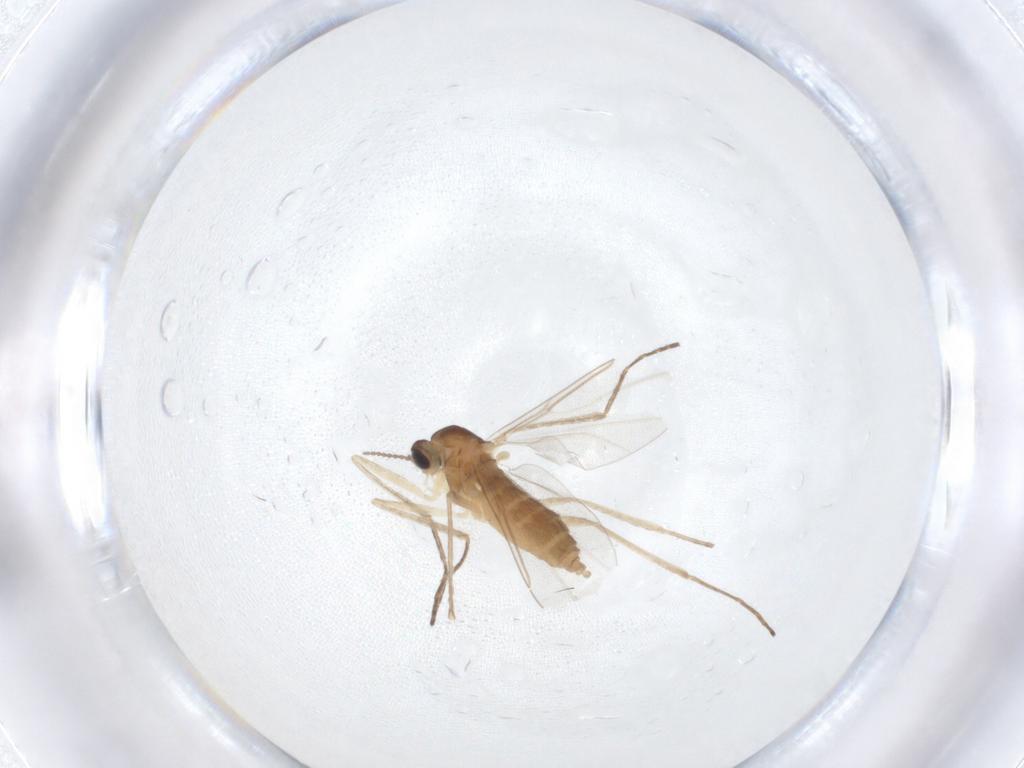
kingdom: Animalia
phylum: Arthropoda
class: Insecta
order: Diptera
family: Cecidomyiidae
